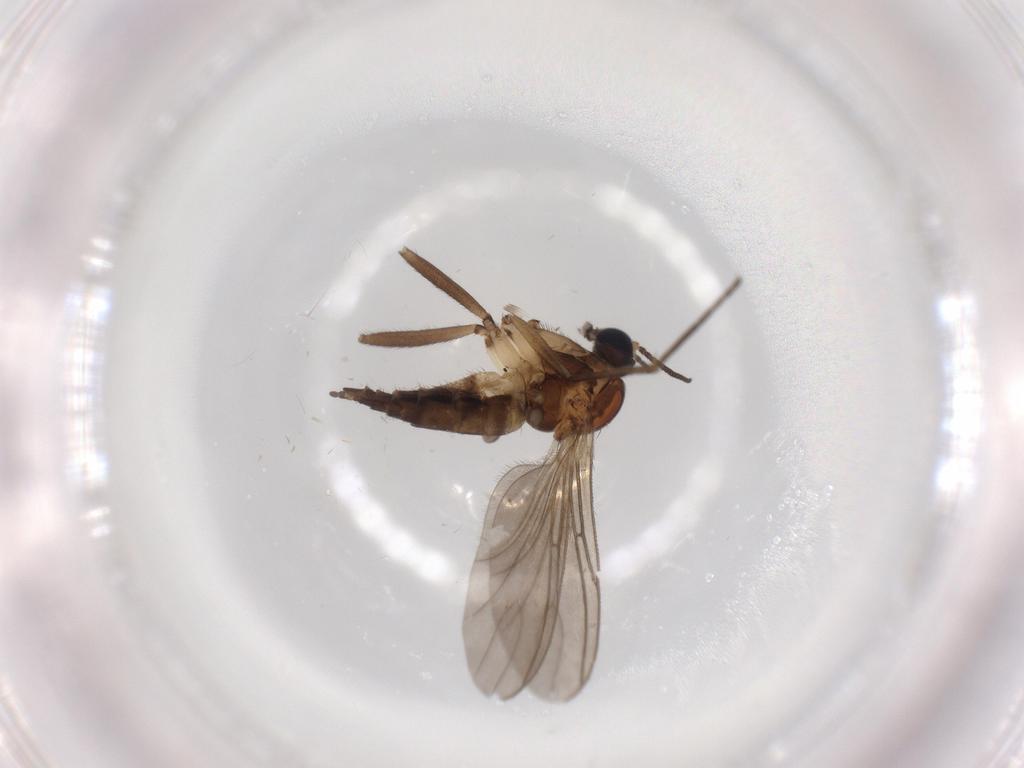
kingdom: Animalia
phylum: Arthropoda
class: Insecta
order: Diptera
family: Sciaridae
